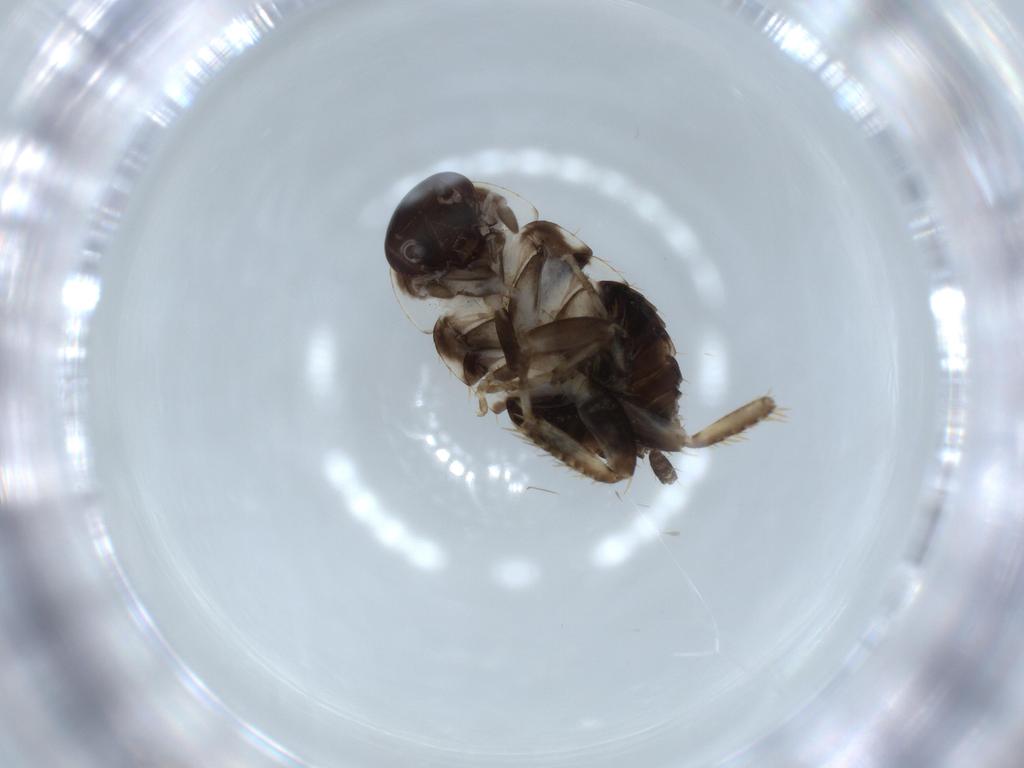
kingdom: Animalia
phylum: Arthropoda
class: Insecta
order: Blattodea
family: Ectobiidae
